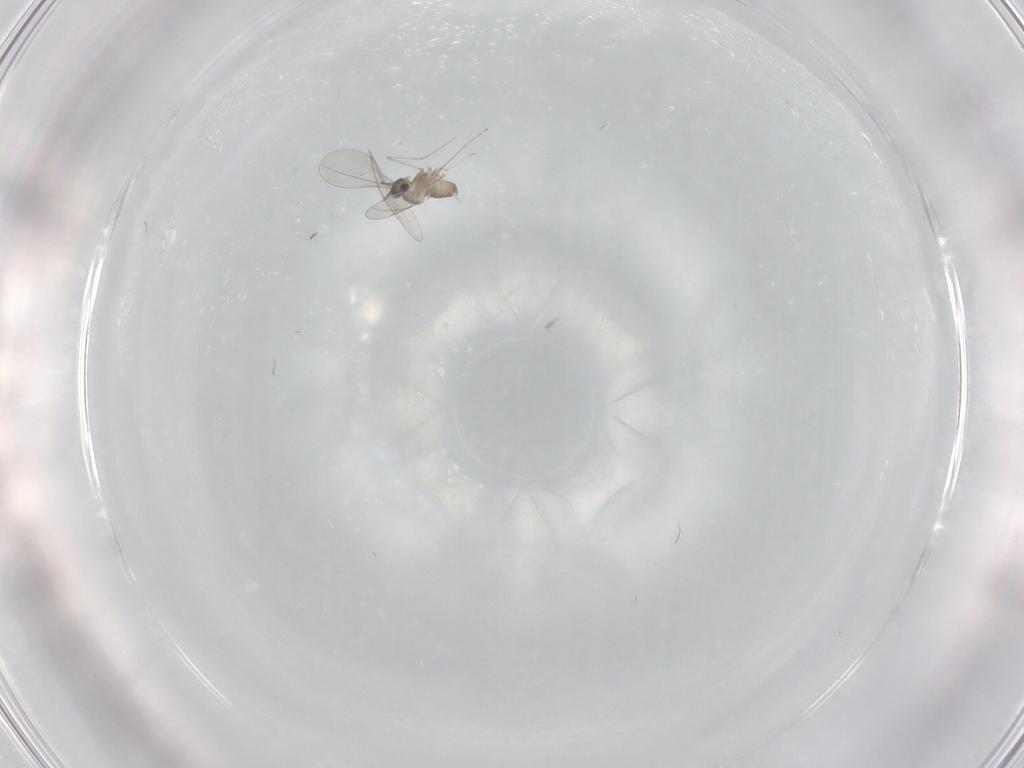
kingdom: Animalia
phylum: Arthropoda
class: Insecta
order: Diptera
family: Cecidomyiidae
